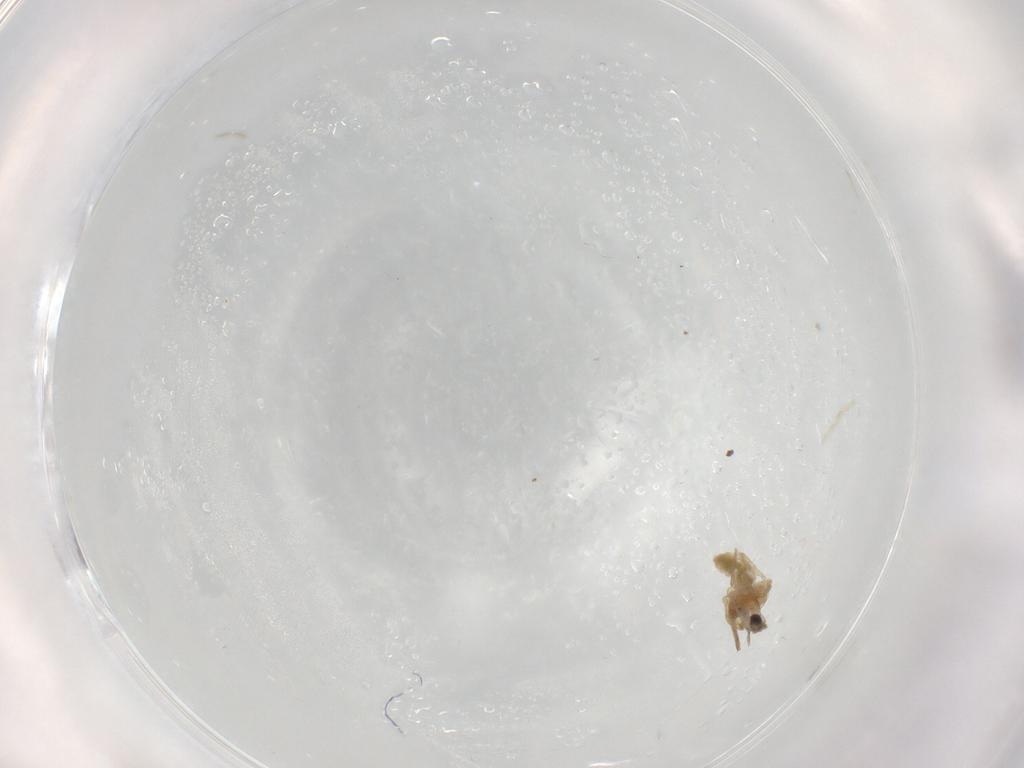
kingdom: Animalia
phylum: Arthropoda
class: Insecta
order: Diptera
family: Chironomidae
